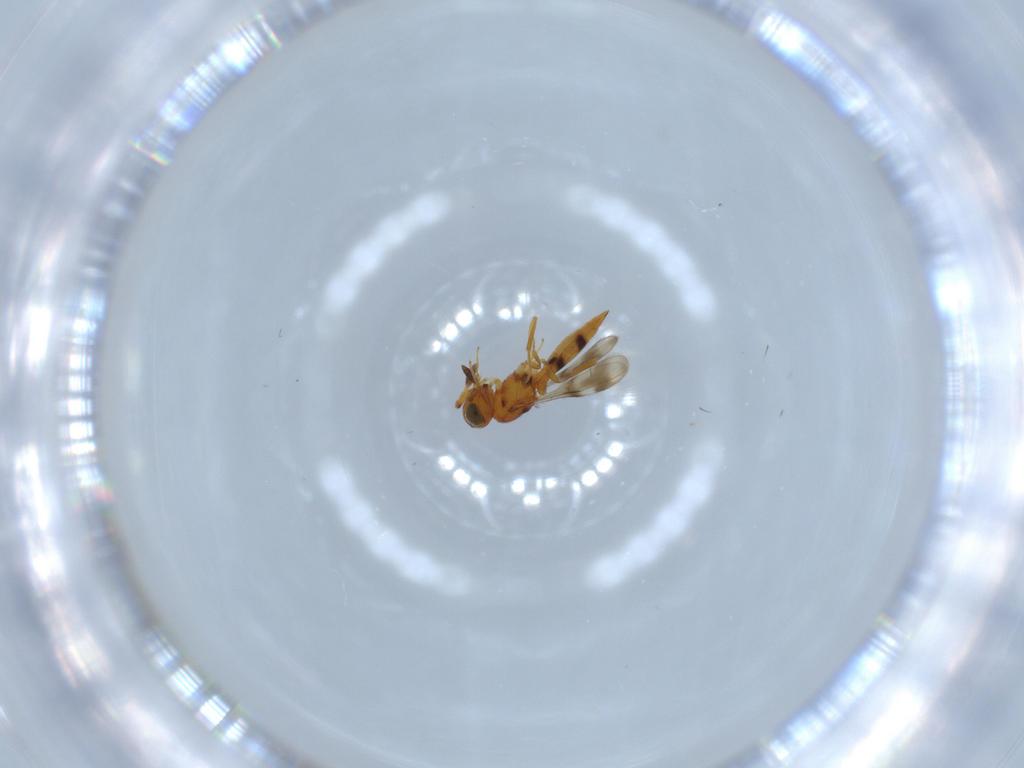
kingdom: Animalia
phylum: Arthropoda
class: Insecta
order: Hymenoptera
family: Scelionidae
